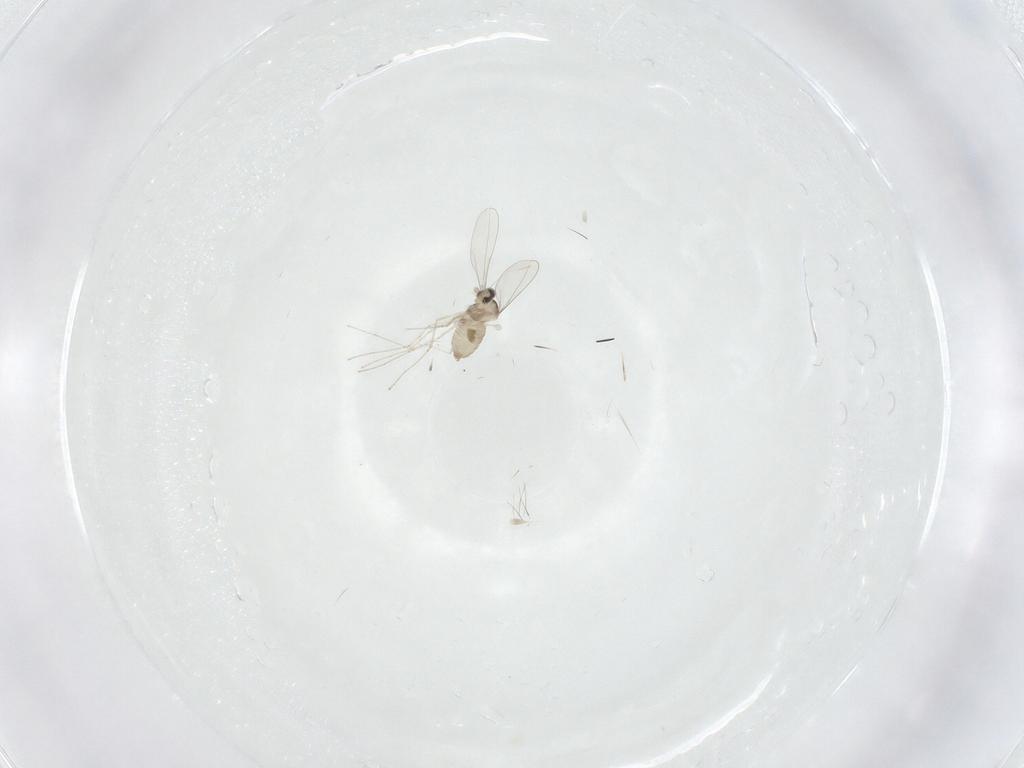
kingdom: Animalia
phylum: Arthropoda
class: Insecta
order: Diptera
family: Cecidomyiidae
